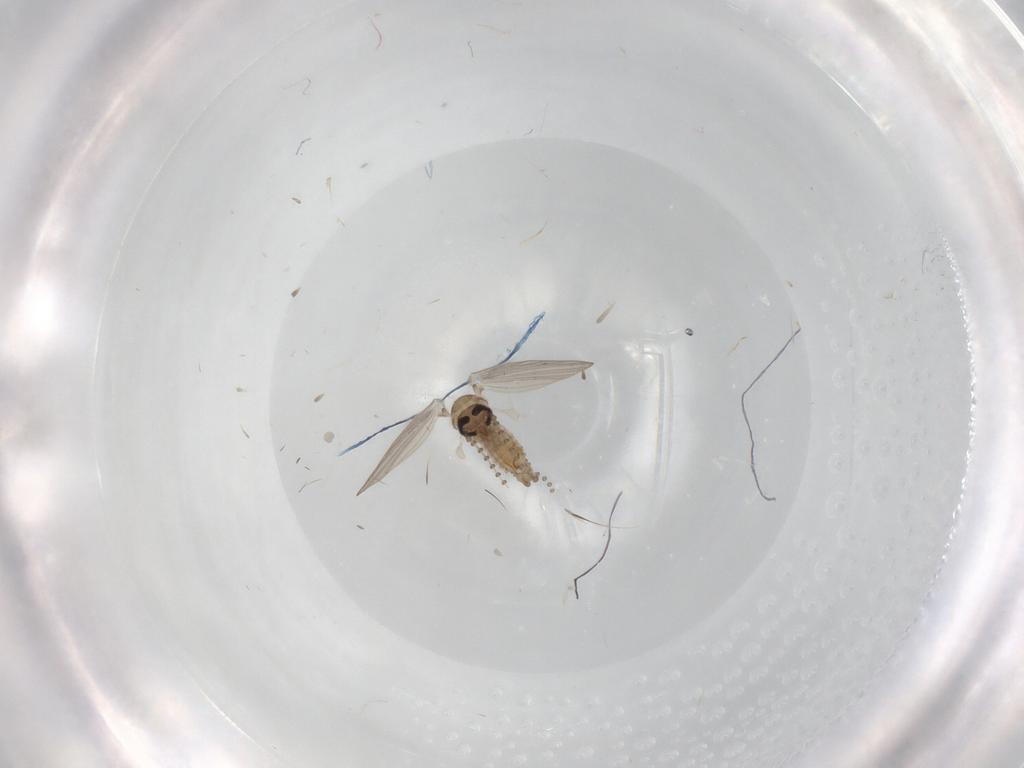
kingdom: Animalia
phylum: Arthropoda
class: Insecta
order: Diptera
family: Psychodidae
